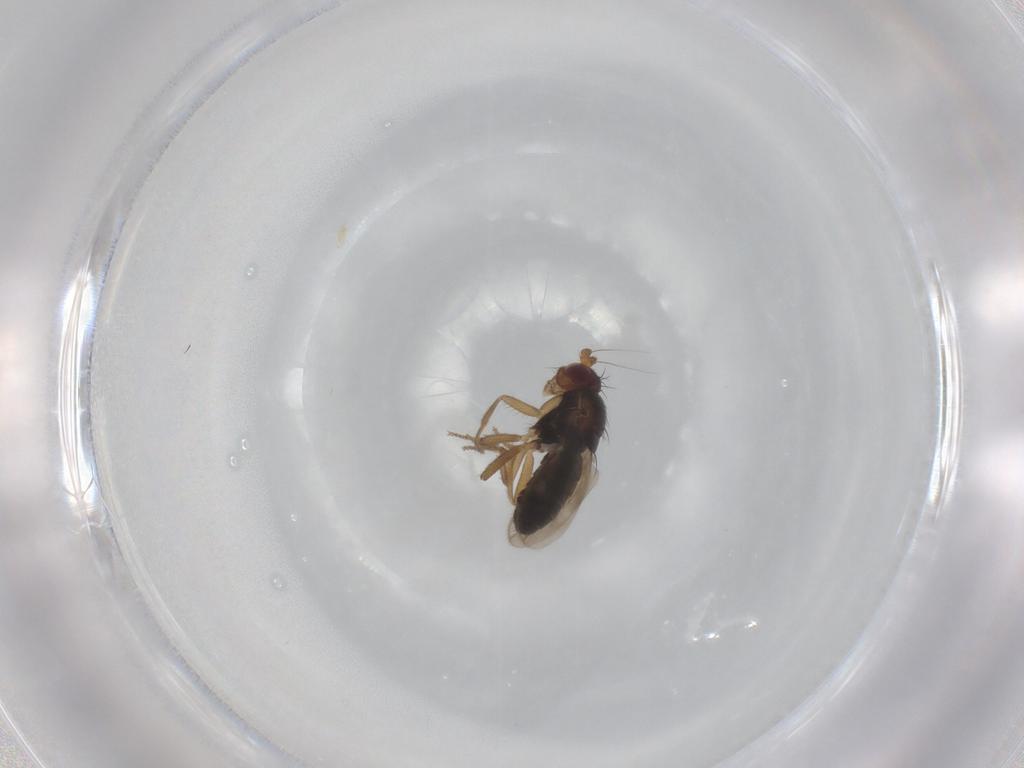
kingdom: Animalia
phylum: Arthropoda
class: Insecta
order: Diptera
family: Sphaeroceridae
